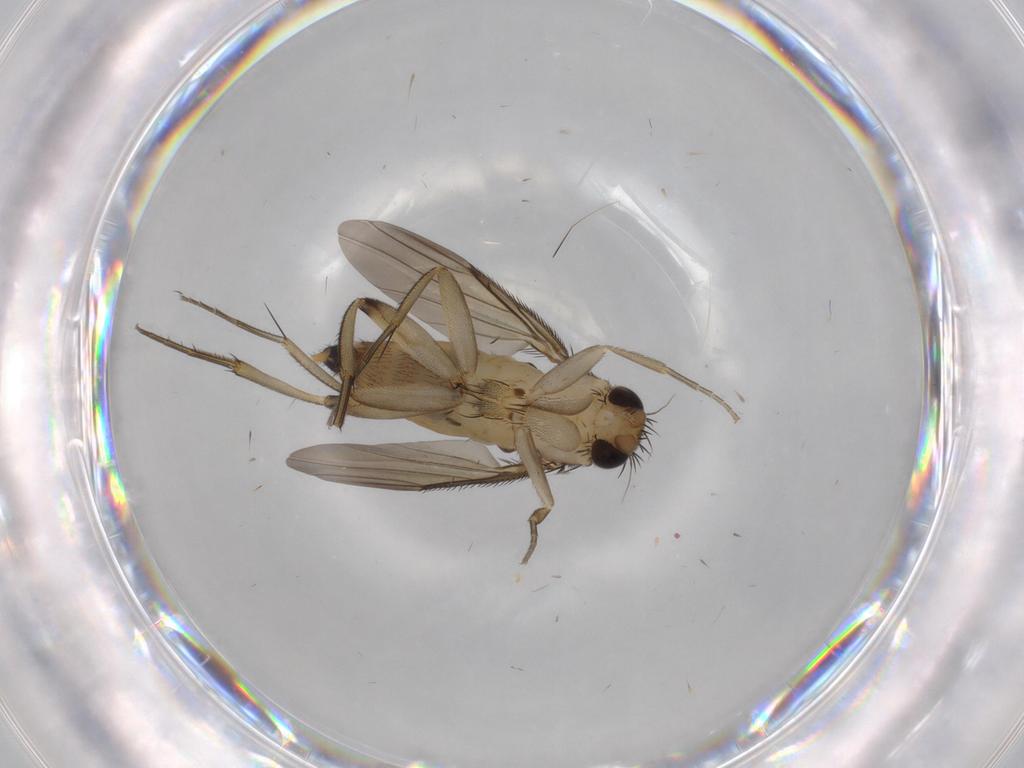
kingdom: Animalia
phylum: Arthropoda
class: Insecta
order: Diptera
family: Phoridae
